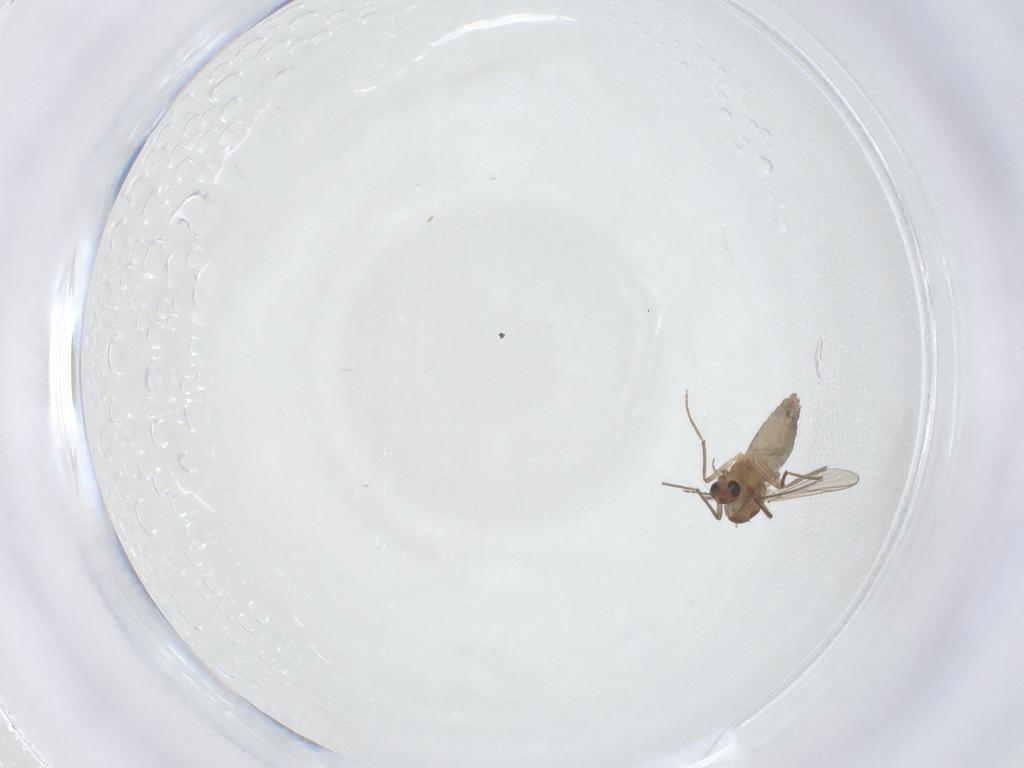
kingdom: Animalia
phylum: Arthropoda
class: Insecta
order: Diptera
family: Chironomidae
